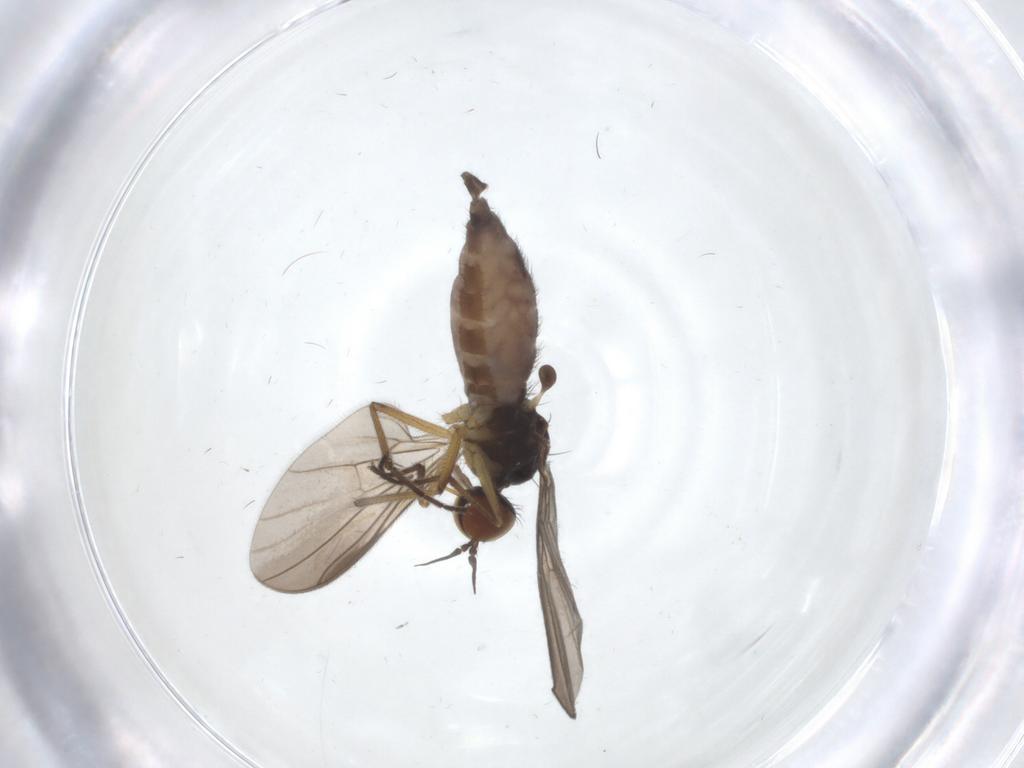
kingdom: Animalia
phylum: Arthropoda
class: Insecta
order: Diptera
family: Empididae
